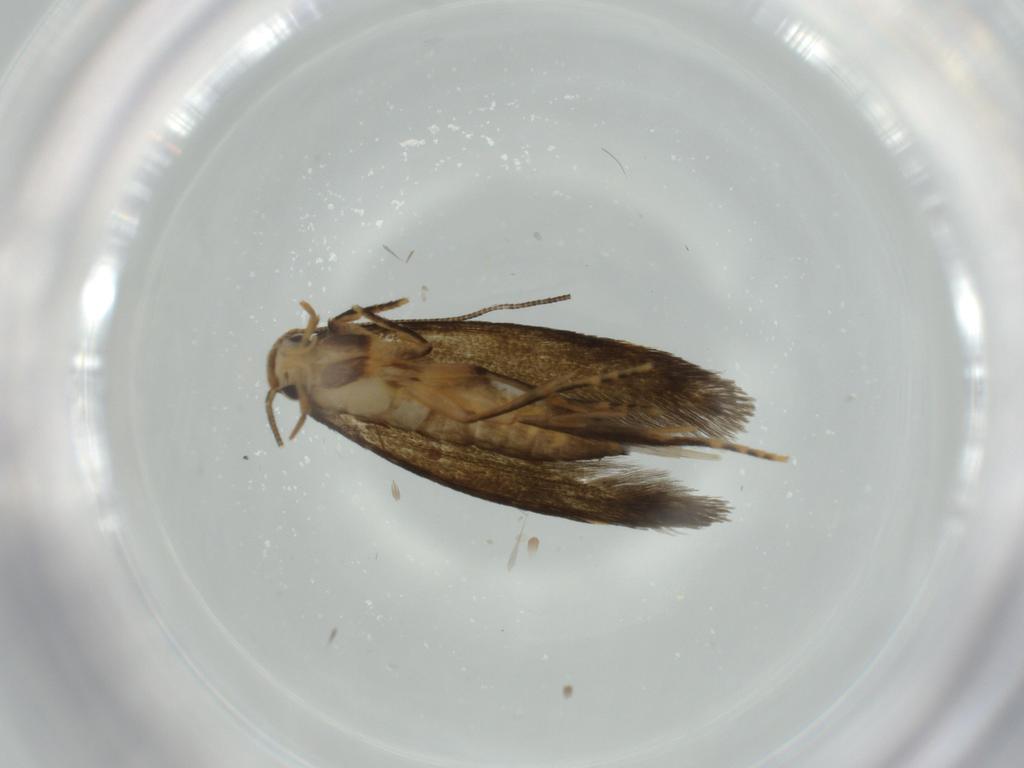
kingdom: Animalia
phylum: Arthropoda
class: Insecta
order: Lepidoptera
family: Tineidae
